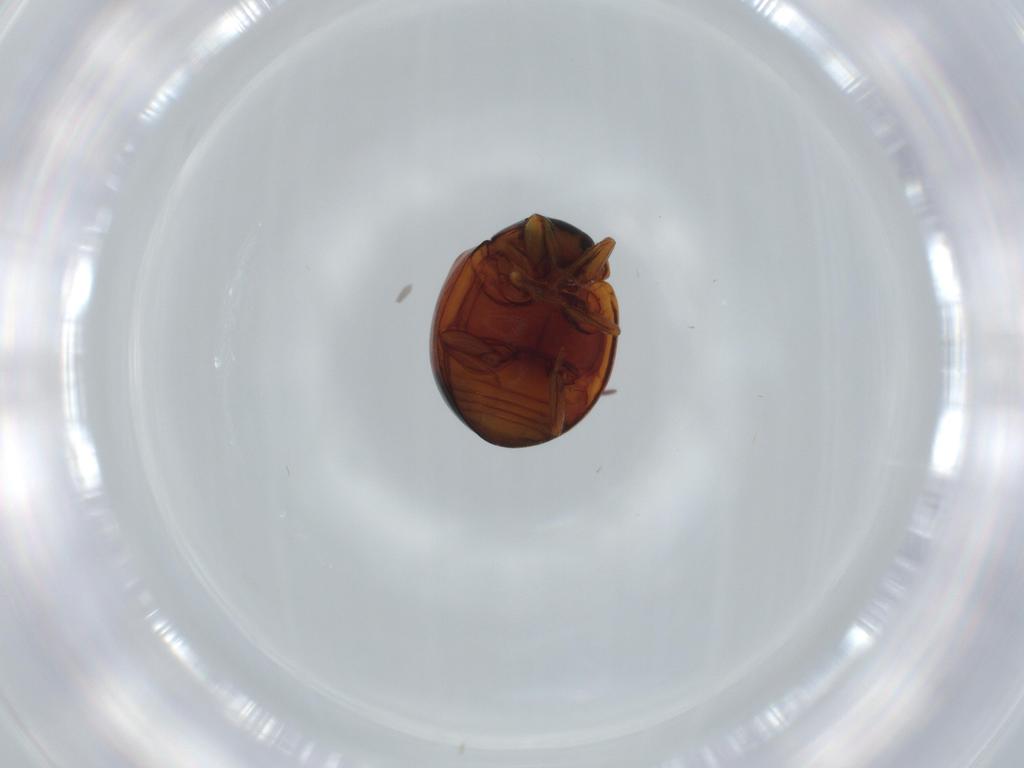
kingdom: Animalia
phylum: Arthropoda
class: Insecta
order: Coleoptera
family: Coccinellidae
